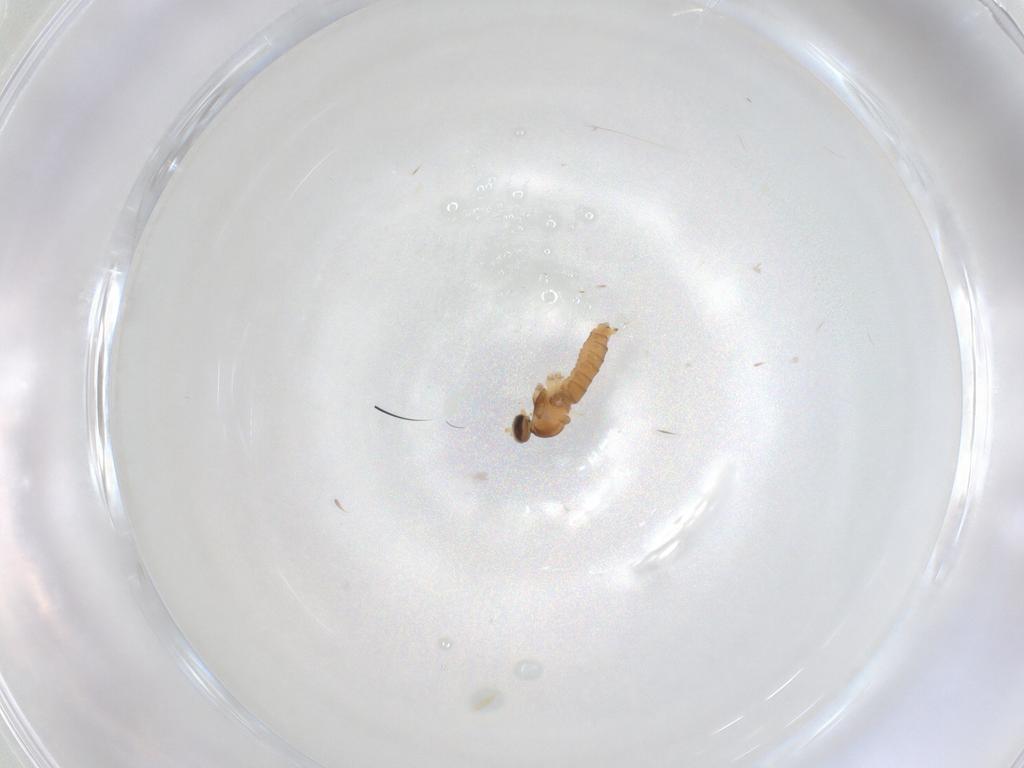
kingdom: Animalia
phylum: Arthropoda
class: Insecta
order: Diptera
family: Cecidomyiidae
